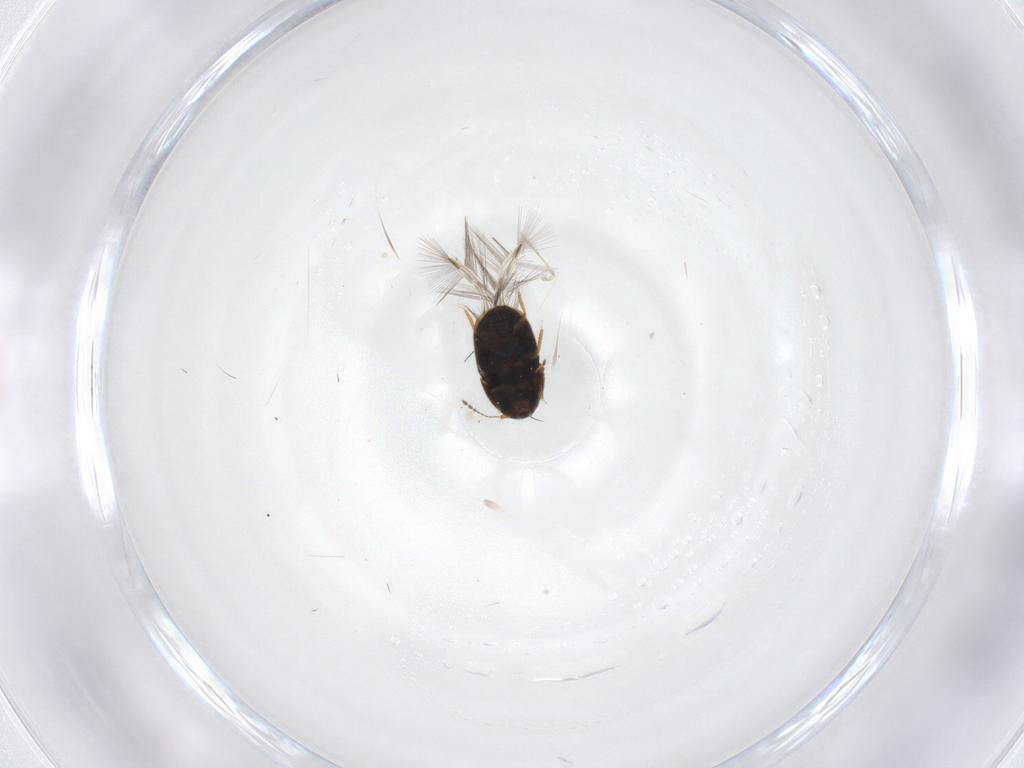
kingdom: Animalia
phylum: Arthropoda
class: Insecta
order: Coleoptera
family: Ptiliidae
